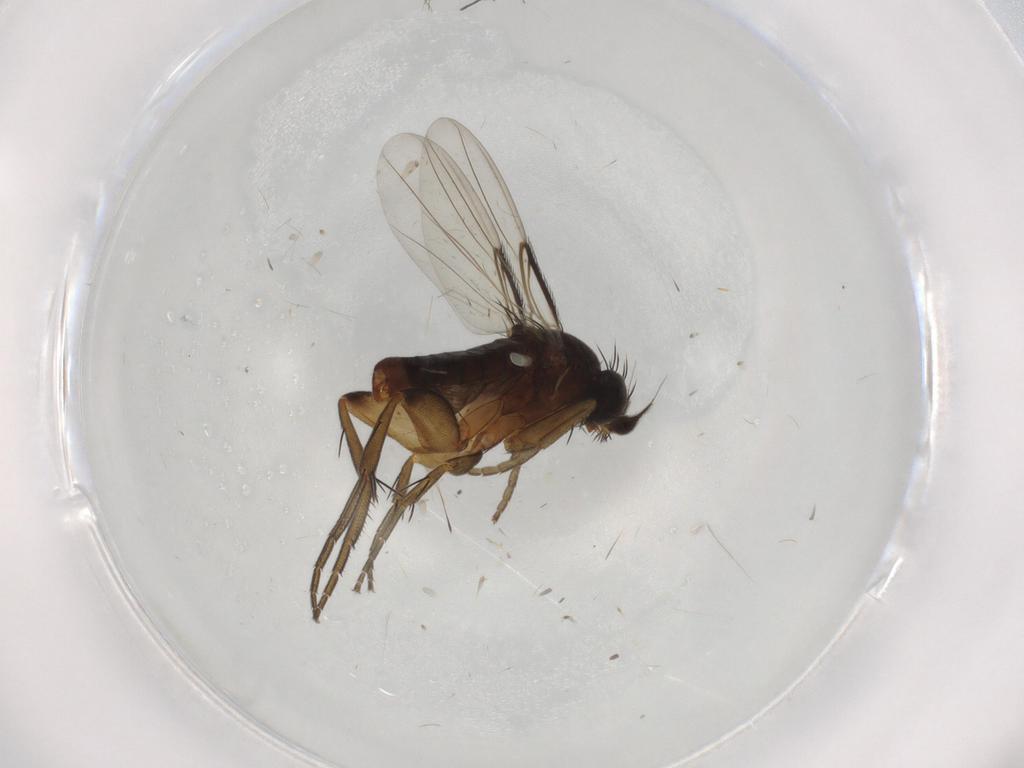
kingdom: Animalia
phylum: Arthropoda
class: Insecta
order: Diptera
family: Phoridae
